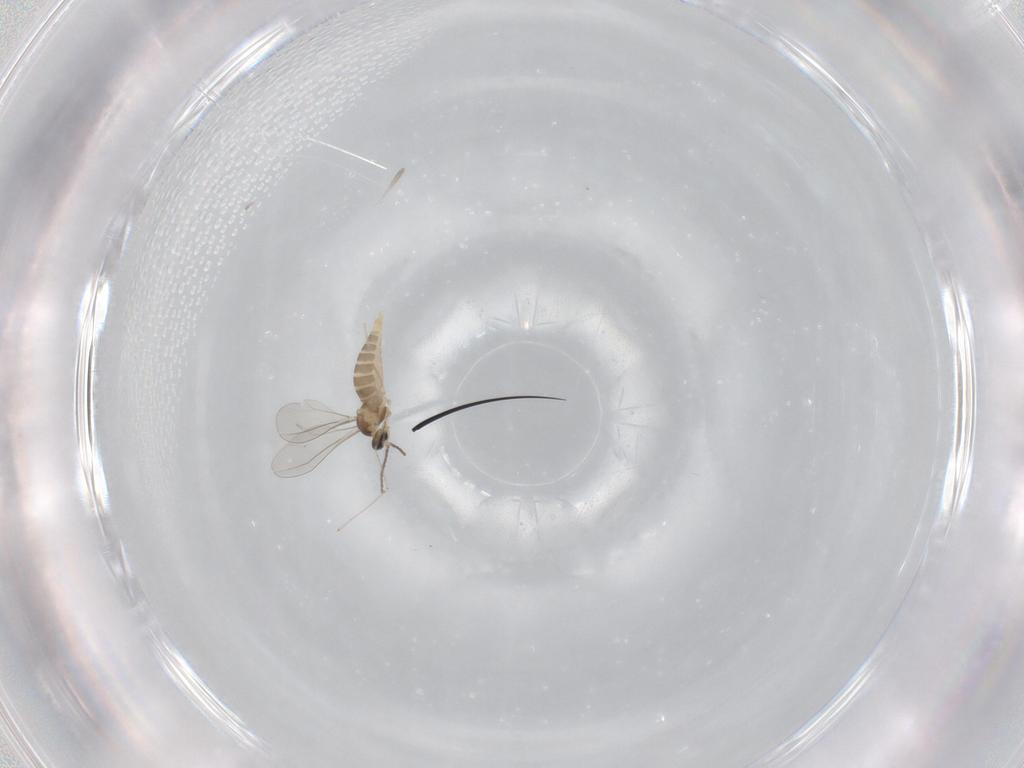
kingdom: Animalia
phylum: Arthropoda
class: Insecta
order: Diptera
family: Cecidomyiidae
